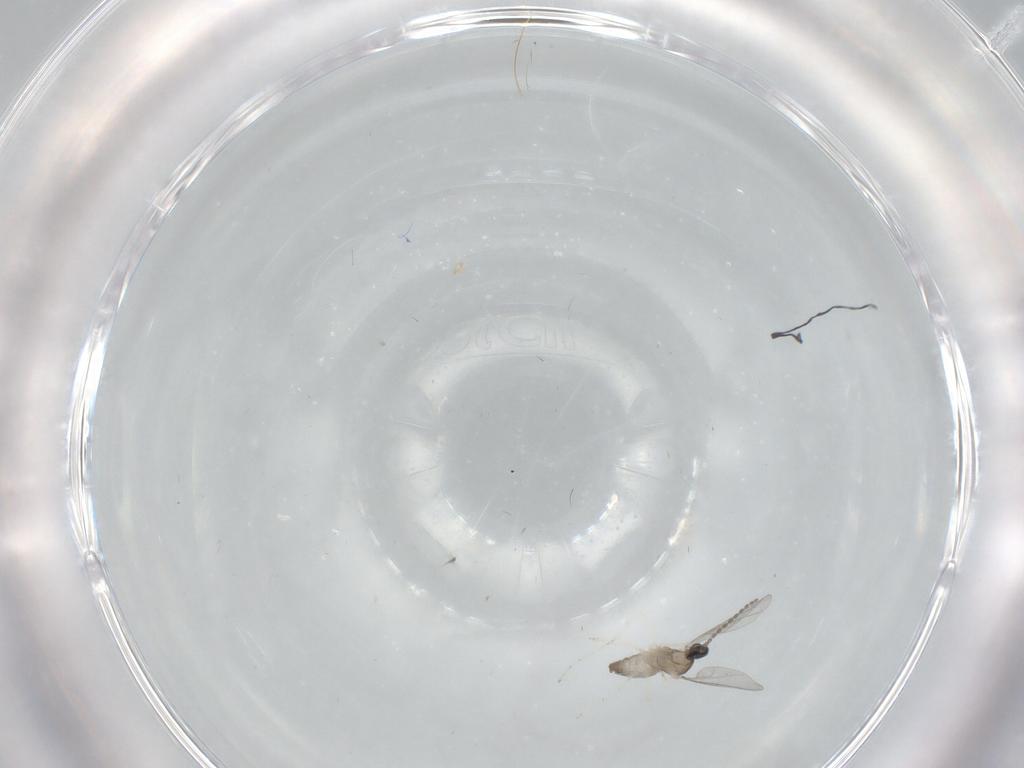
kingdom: Animalia
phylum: Arthropoda
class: Insecta
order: Diptera
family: Cecidomyiidae
